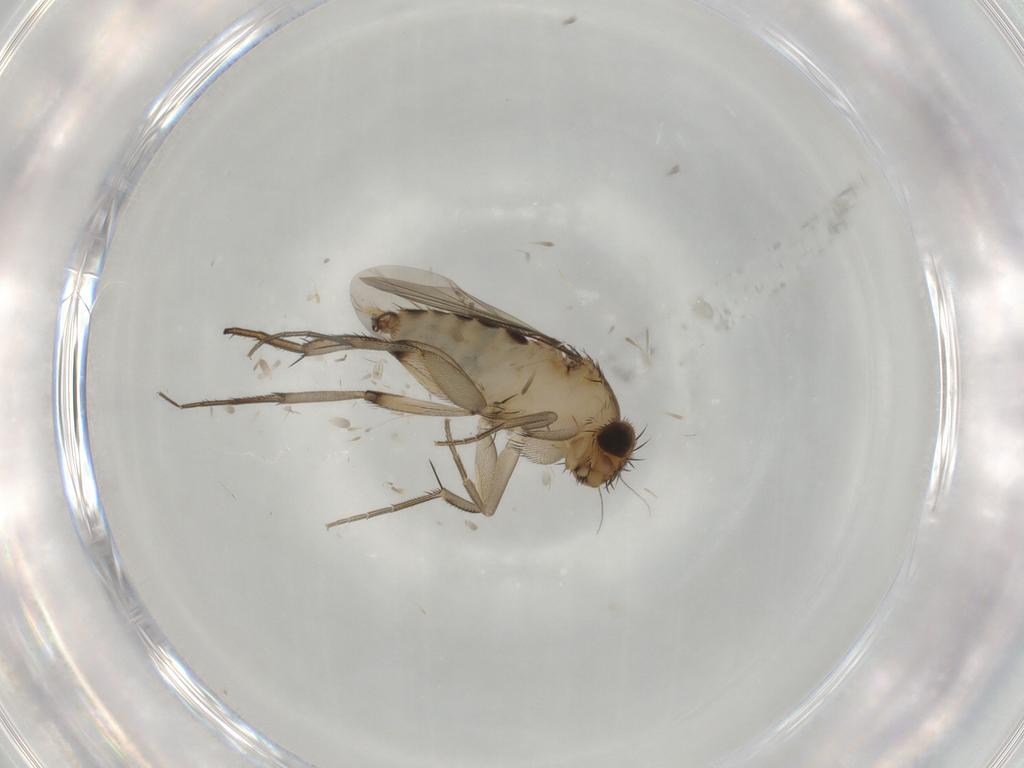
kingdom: Animalia
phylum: Arthropoda
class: Insecta
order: Diptera
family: Phoridae
